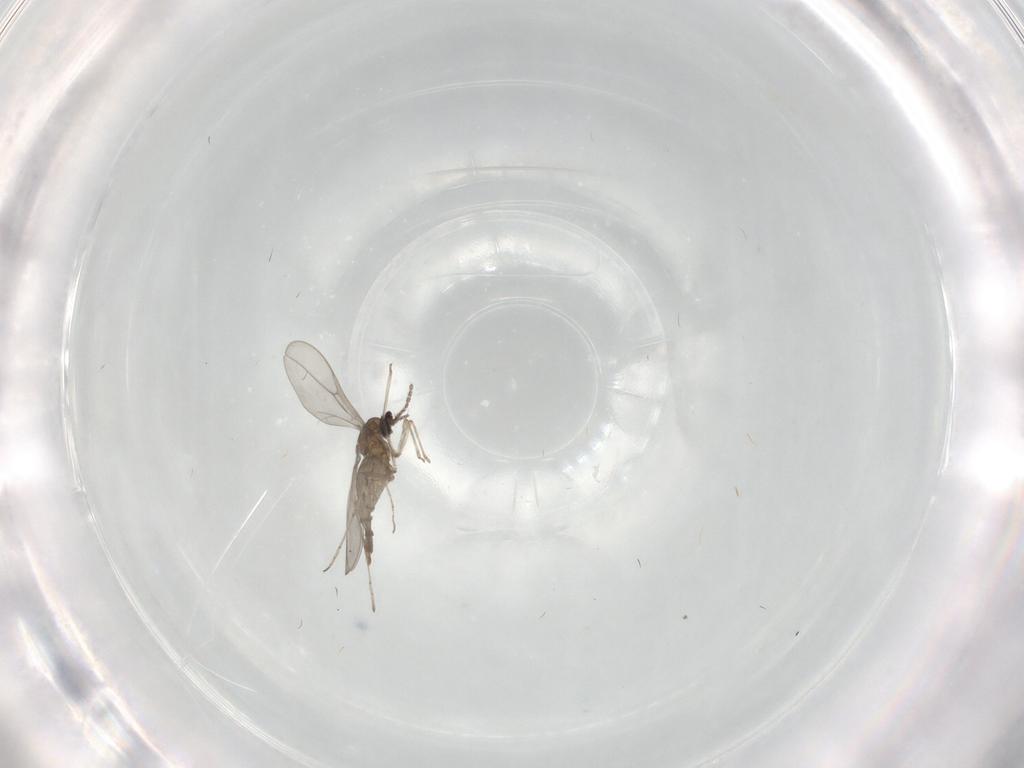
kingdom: Animalia
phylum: Arthropoda
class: Insecta
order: Diptera
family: Cecidomyiidae
